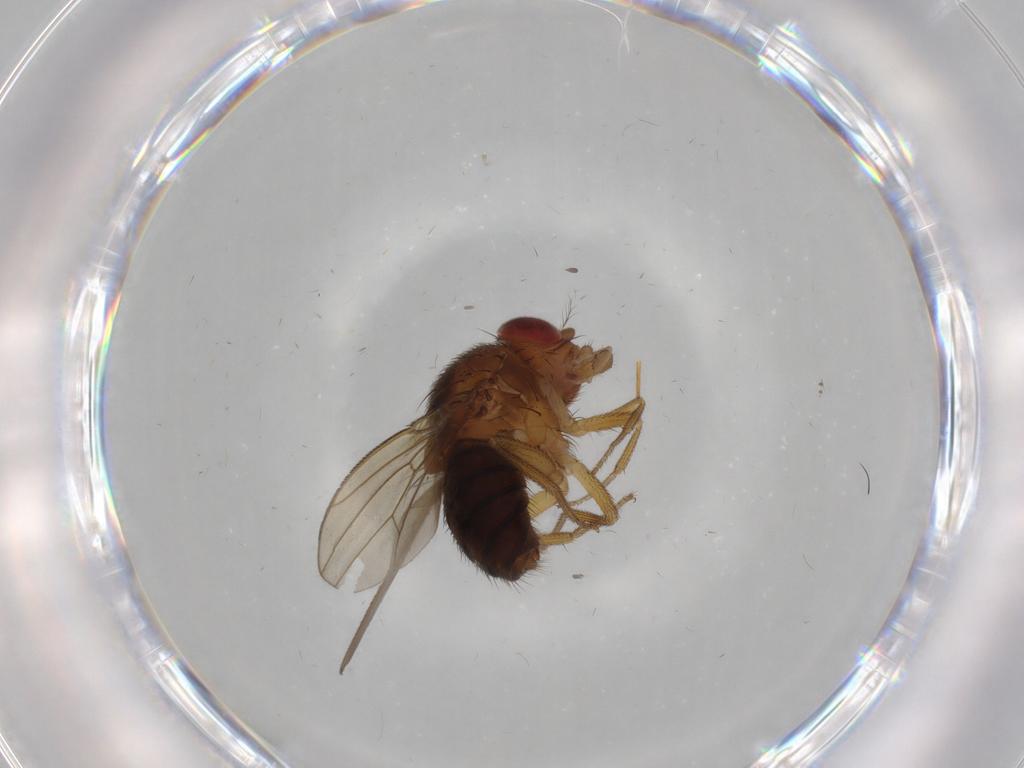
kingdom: Animalia
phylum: Arthropoda
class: Insecta
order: Diptera
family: Drosophilidae
